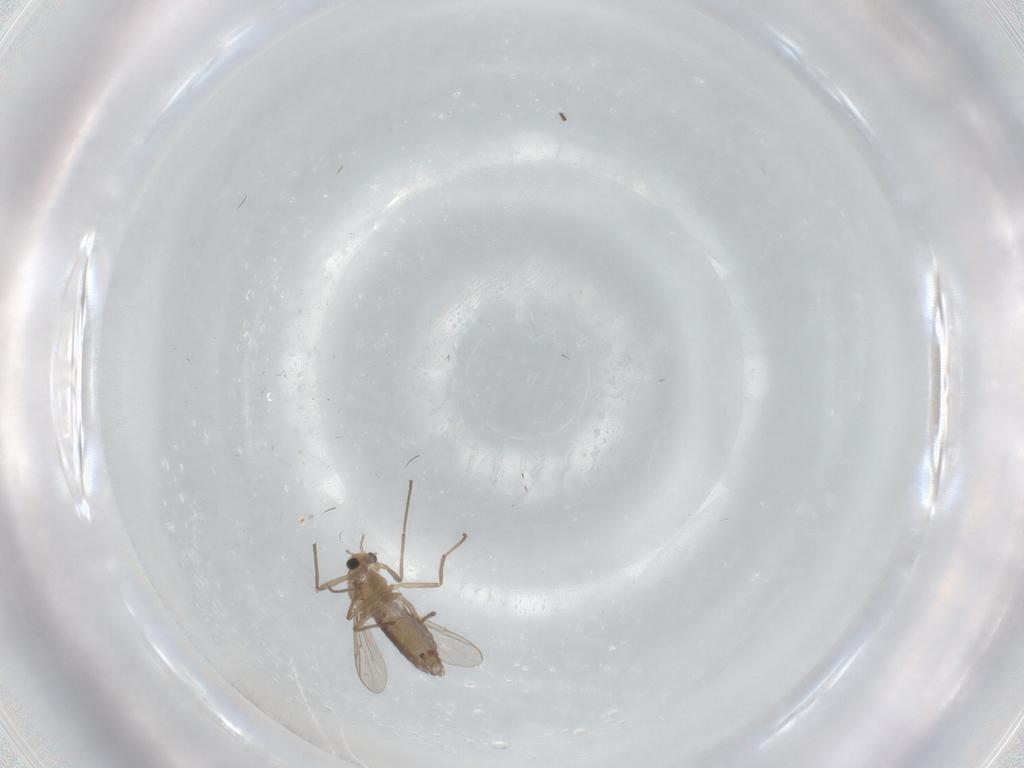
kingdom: Animalia
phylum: Arthropoda
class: Insecta
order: Diptera
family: Chironomidae
